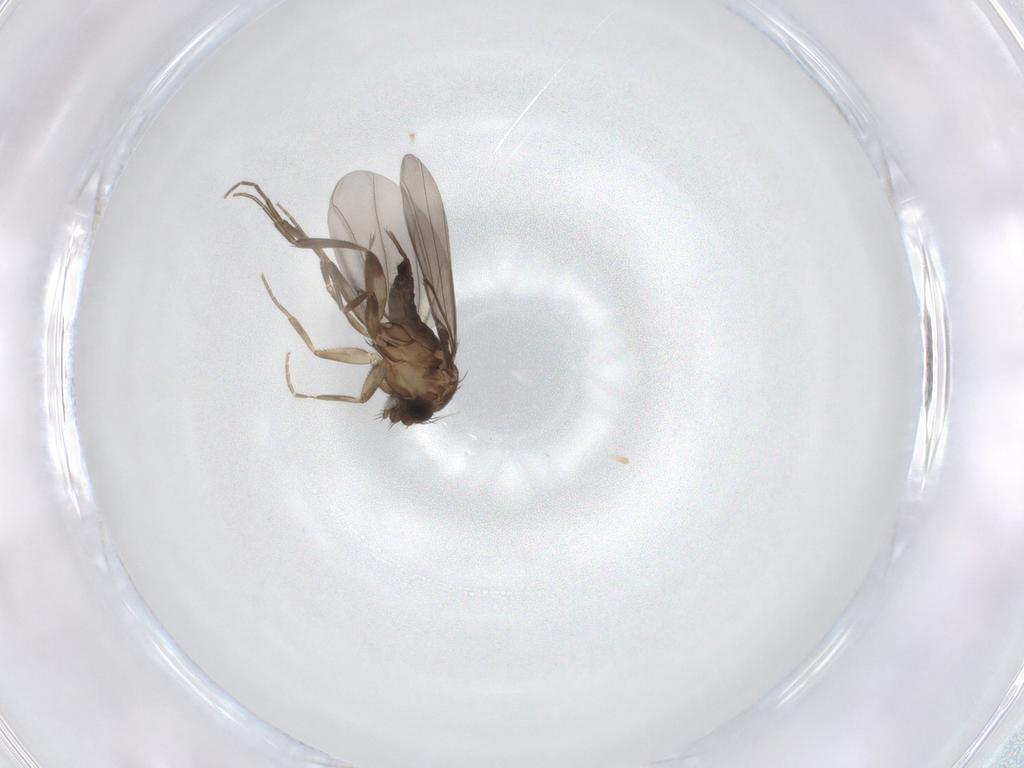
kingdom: Animalia
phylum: Arthropoda
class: Insecta
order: Diptera
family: Phoridae
